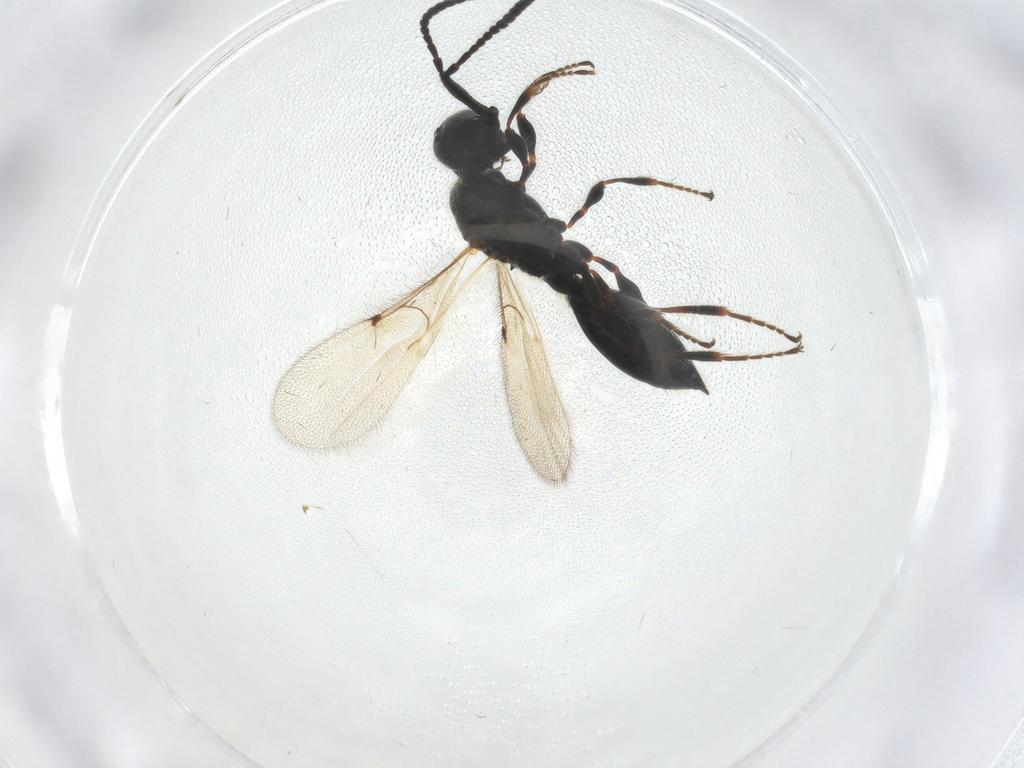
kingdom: Animalia
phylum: Arthropoda
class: Insecta
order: Hymenoptera
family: Diapriidae
